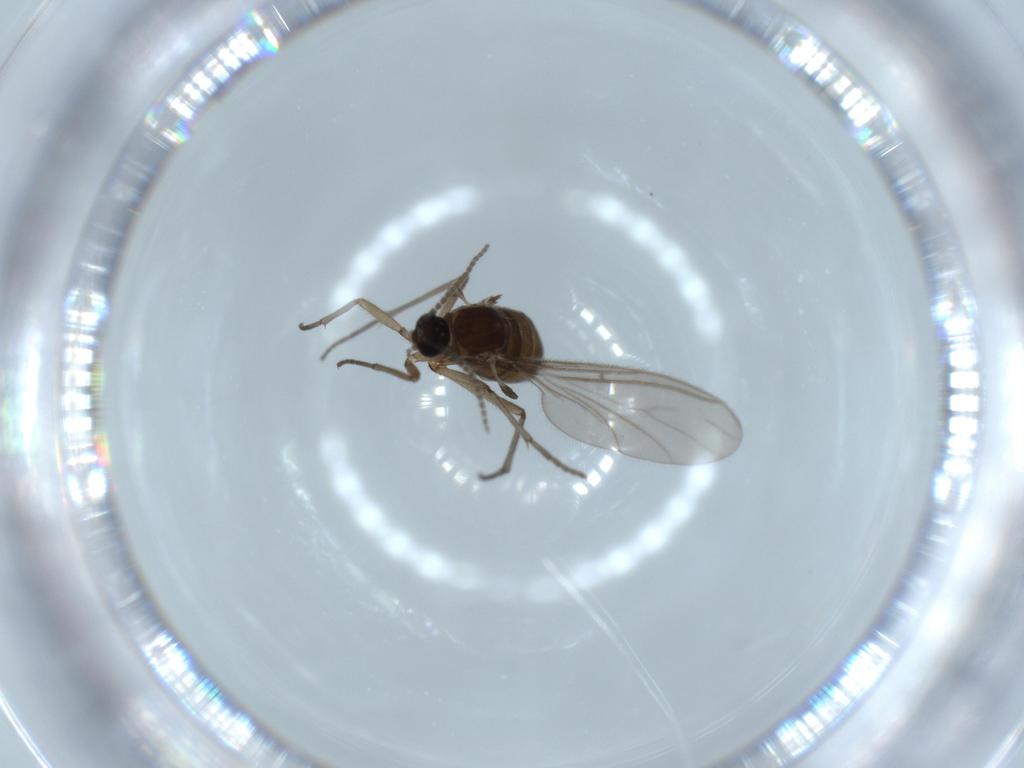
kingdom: Animalia
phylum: Arthropoda
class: Insecta
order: Diptera
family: Sciaridae
